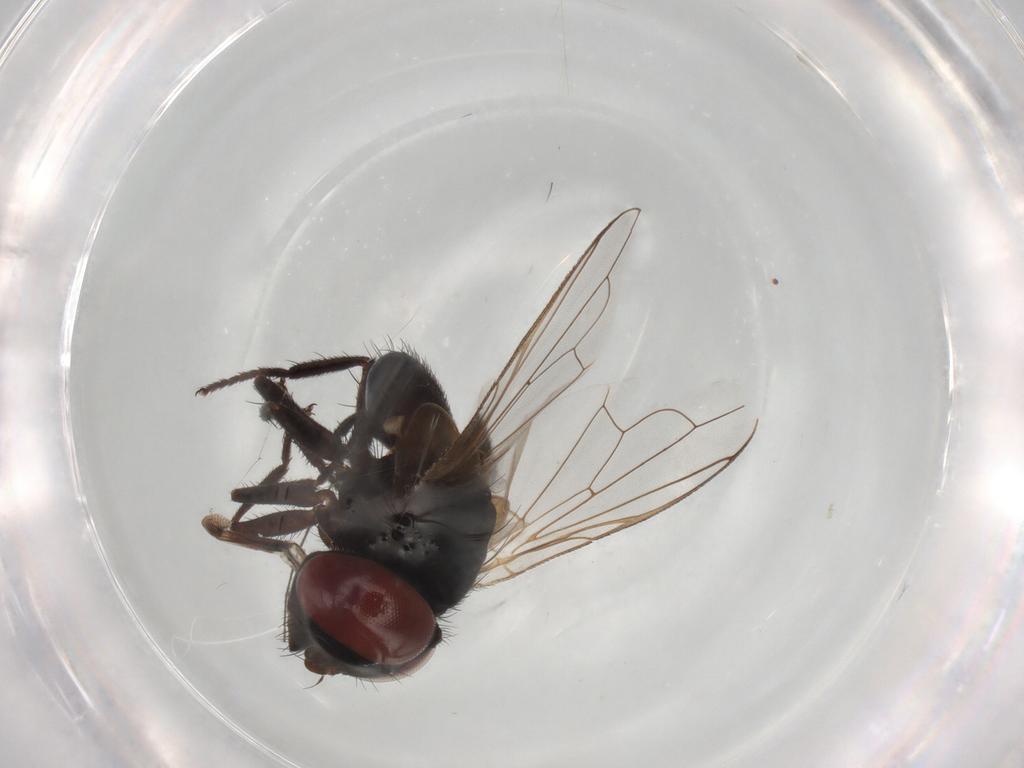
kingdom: Animalia
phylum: Arthropoda
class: Insecta
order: Diptera
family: Tachinidae
